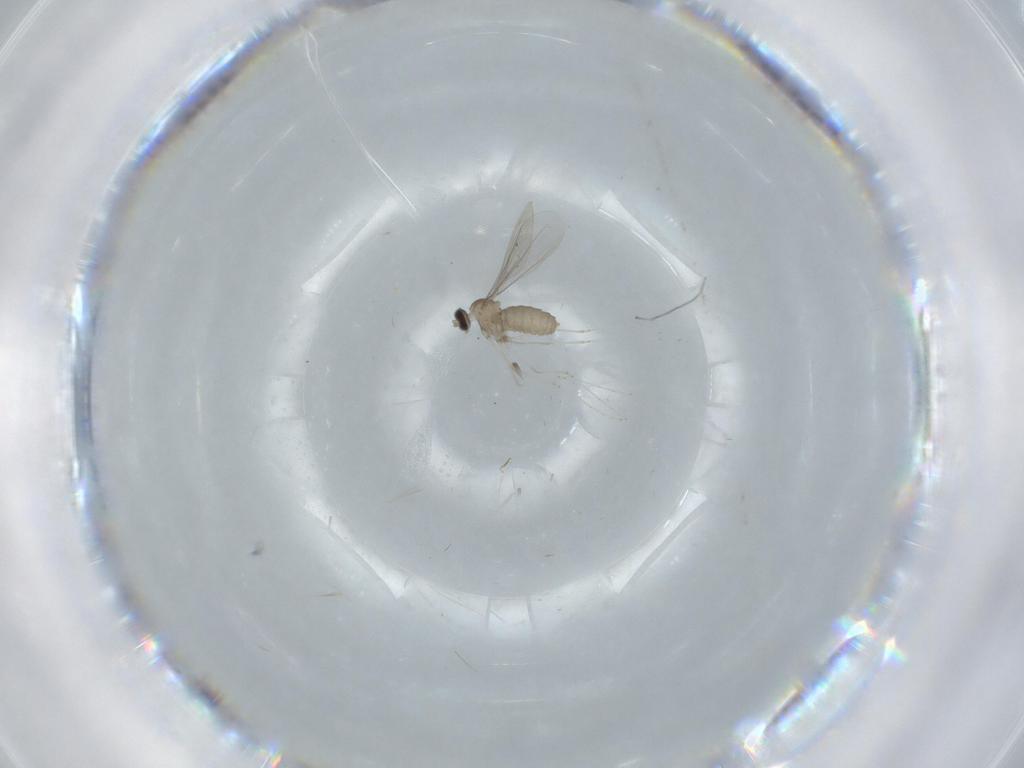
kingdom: Animalia
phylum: Arthropoda
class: Insecta
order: Diptera
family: Cecidomyiidae
